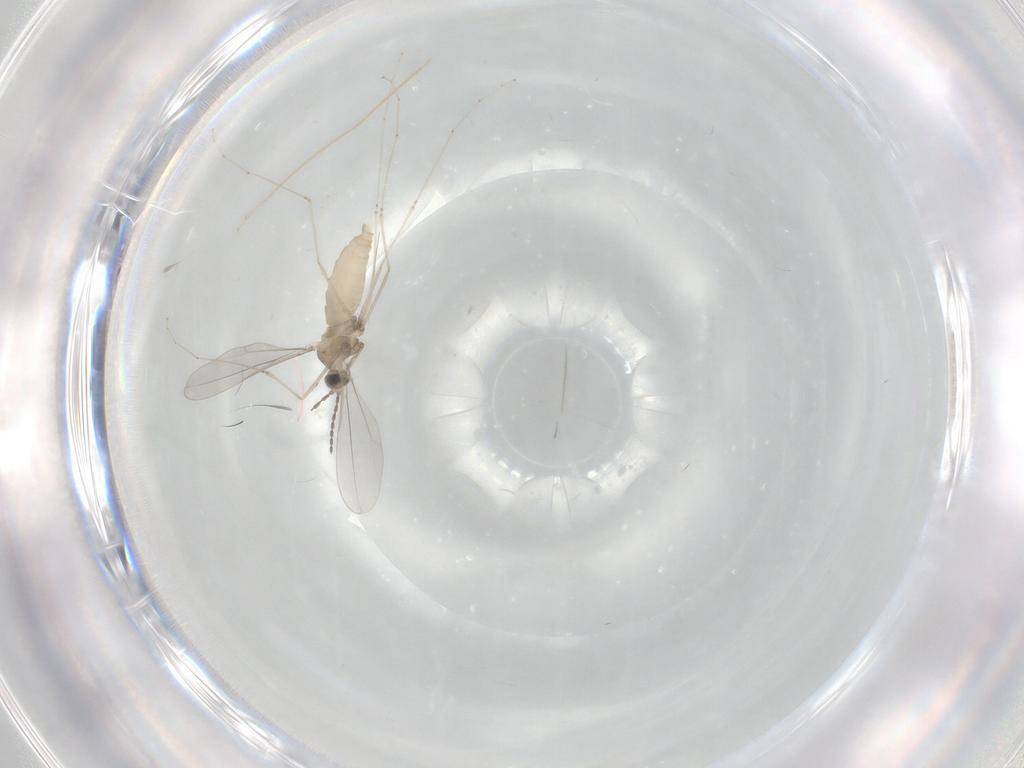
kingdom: Animalia
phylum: Arthropoda
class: Insecta
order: Diptera
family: Cecidomyiidae
